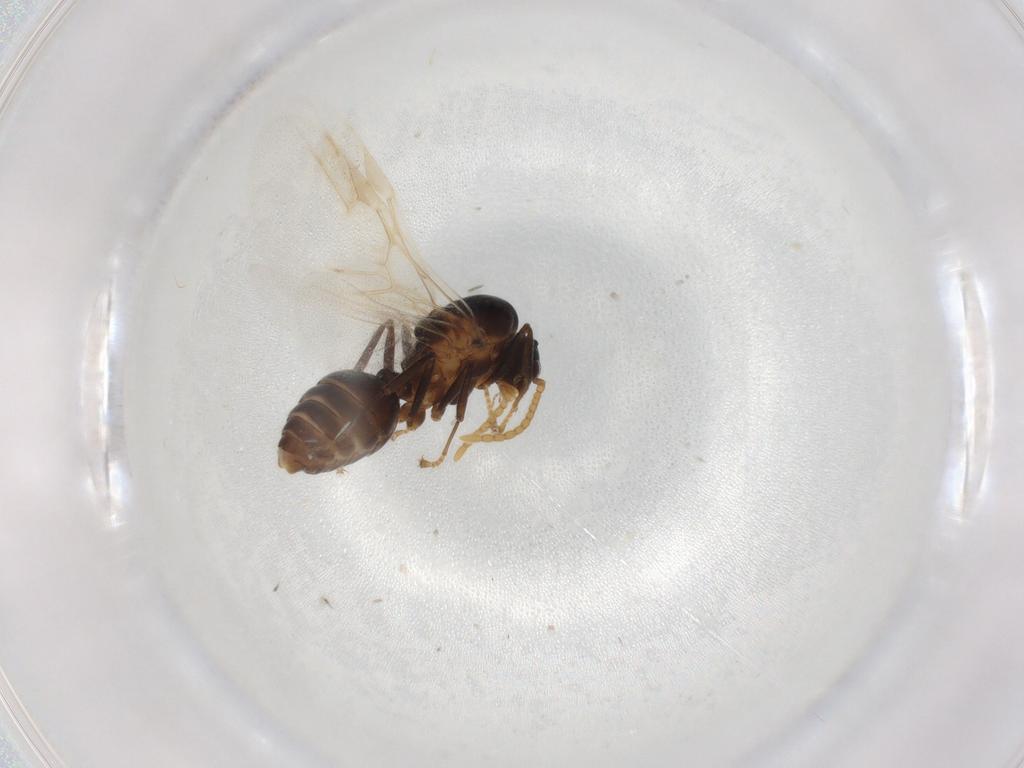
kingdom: Animalia
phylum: Arthropoda
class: Insecta
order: Hymenoptera
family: Formicidae
